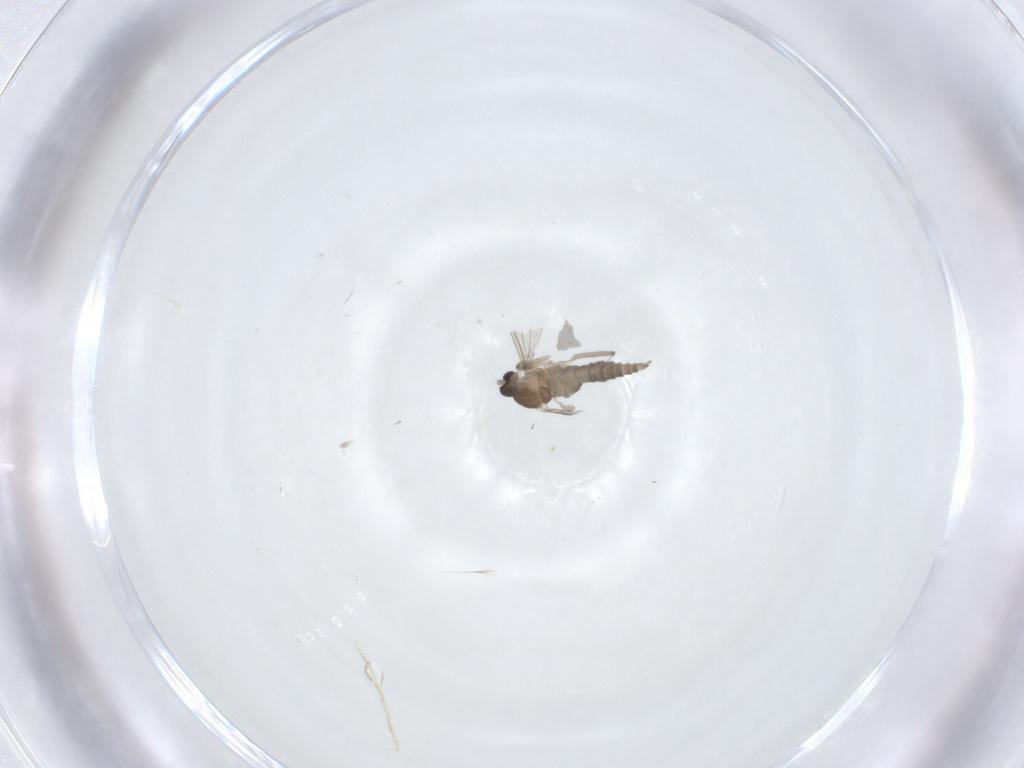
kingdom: Animalia
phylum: Arthropoda
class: Insecta
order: Diptera
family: Cecidomyiidae
